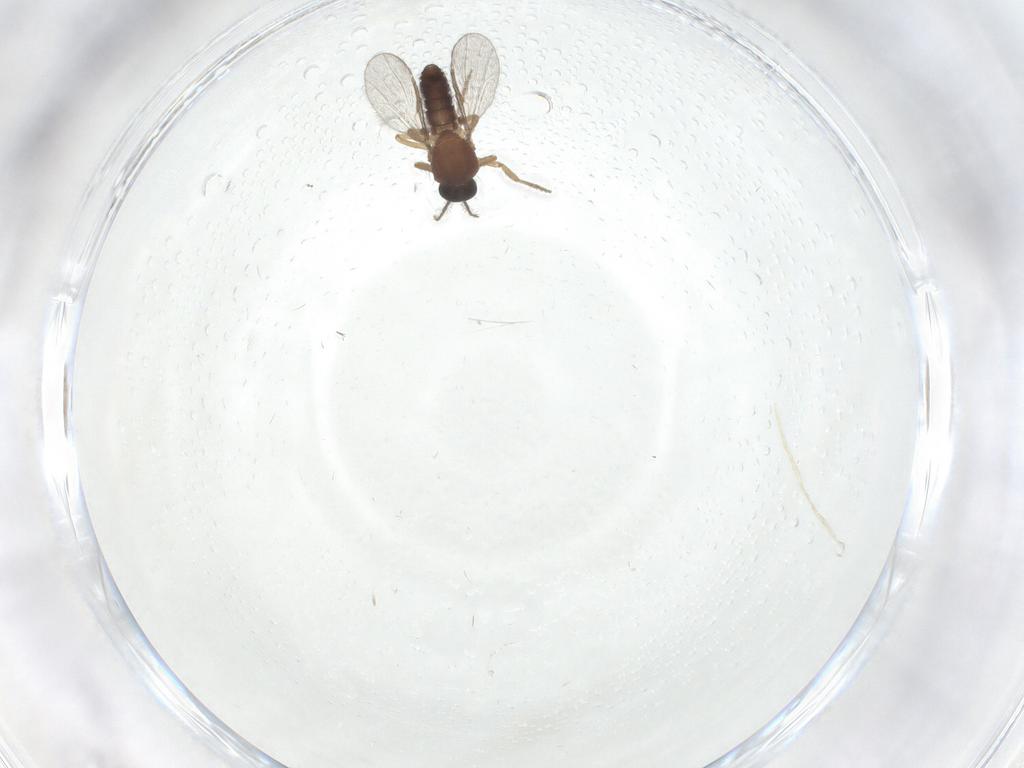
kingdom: Animalia
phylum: Arthropoda
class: Insecta
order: Diptera
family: Ceratopogonidae
